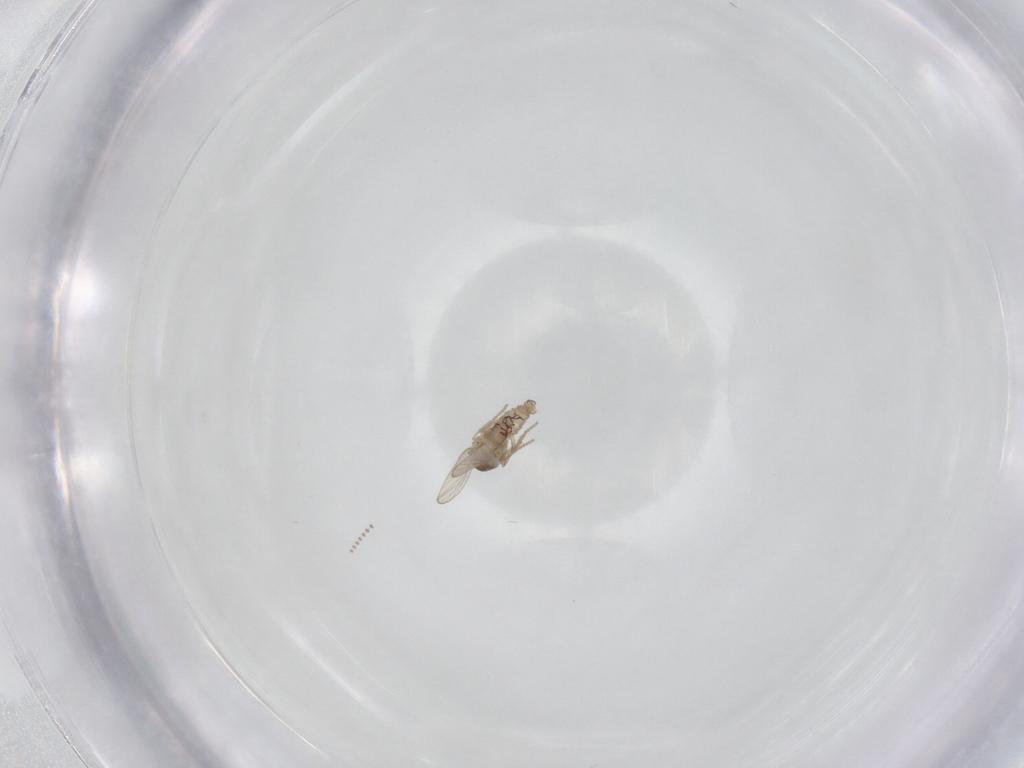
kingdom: Animalia
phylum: Arthropoda
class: Insecta
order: Diptera
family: Psychodidae
